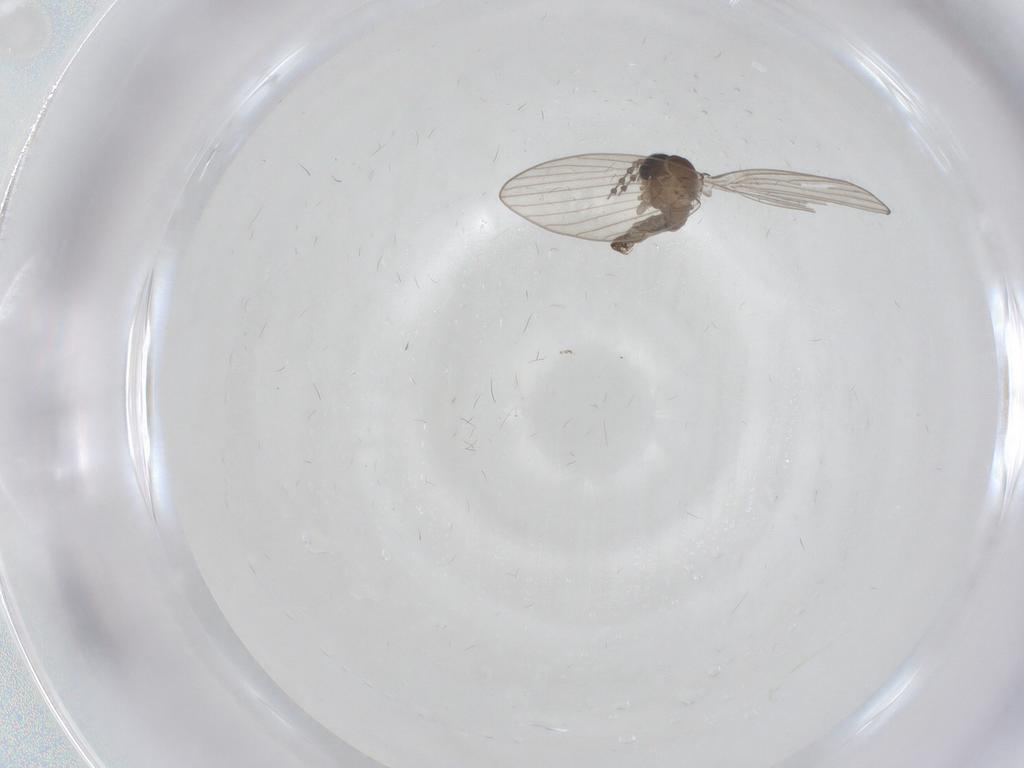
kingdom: Animalia
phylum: Arthropoda
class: Insecta
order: Diptera
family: Psychodidae
